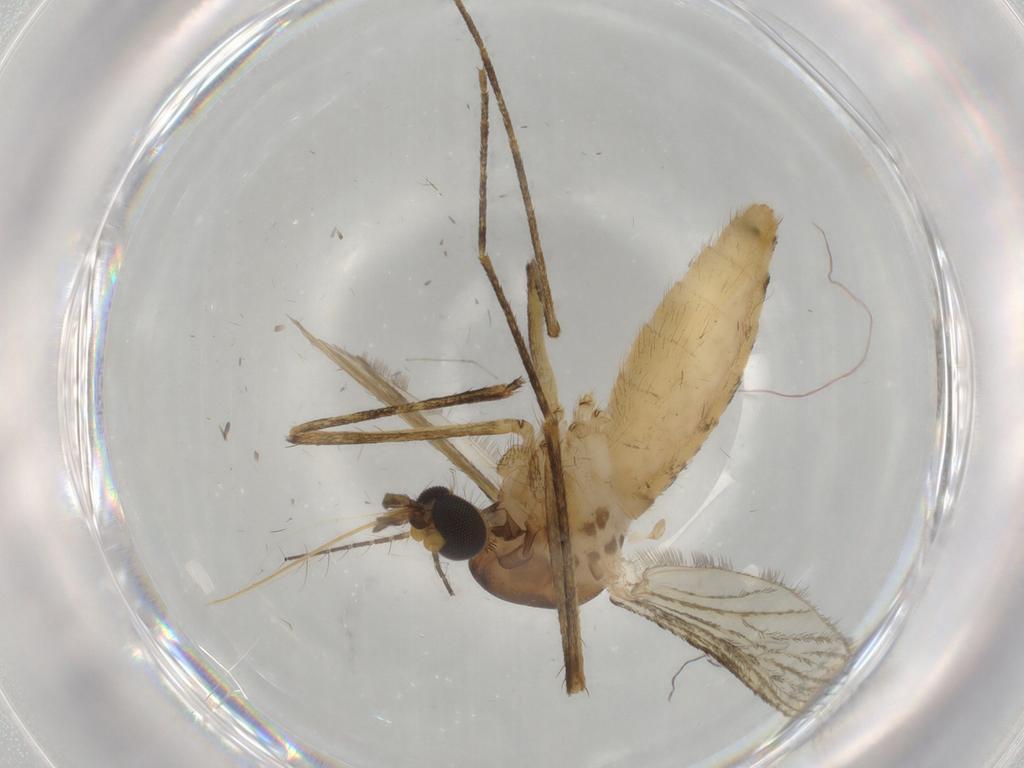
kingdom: Animalia
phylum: Arthropoda
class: Insecta
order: Diptera
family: Cecidomyiidae
